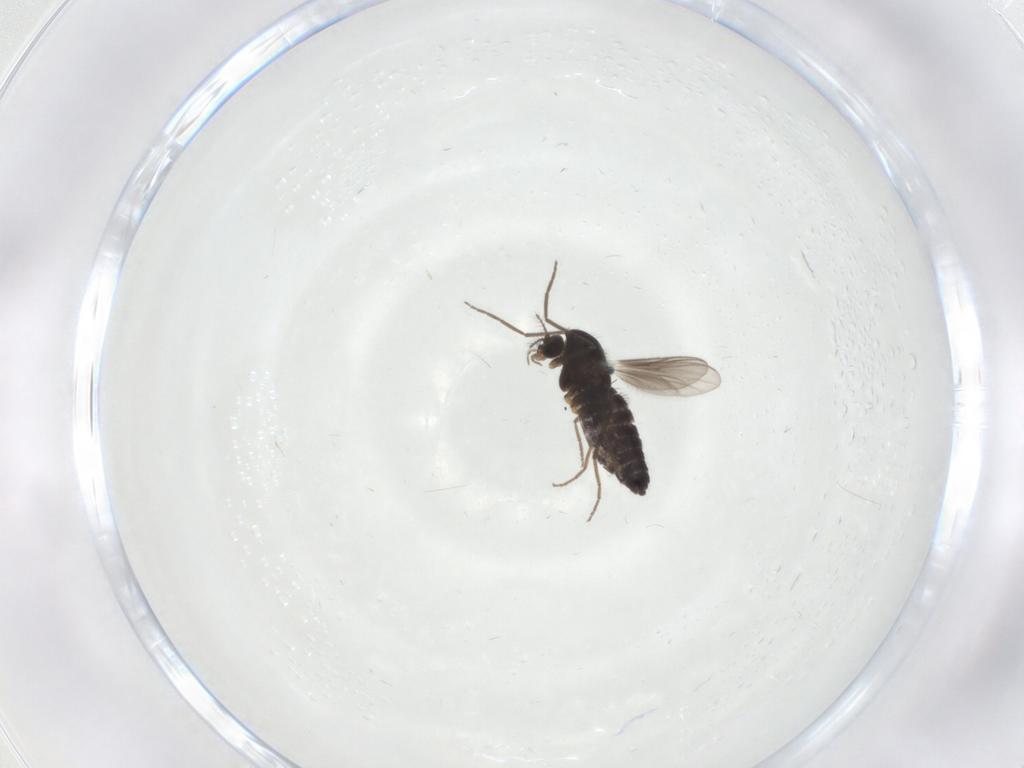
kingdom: Animalia
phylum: Arthropoda
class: Insecta
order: Diptera
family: Chironomidae
